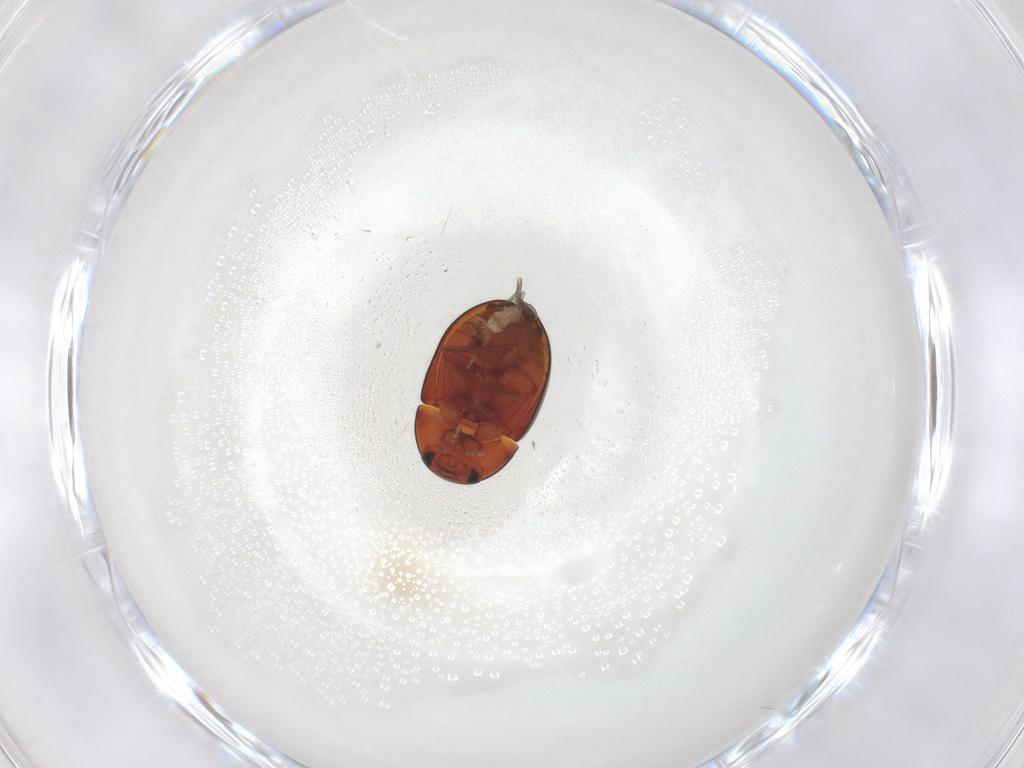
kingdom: Animalia
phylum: Arthropoda
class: Insecta
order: Coleoptera
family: Phalacridae
